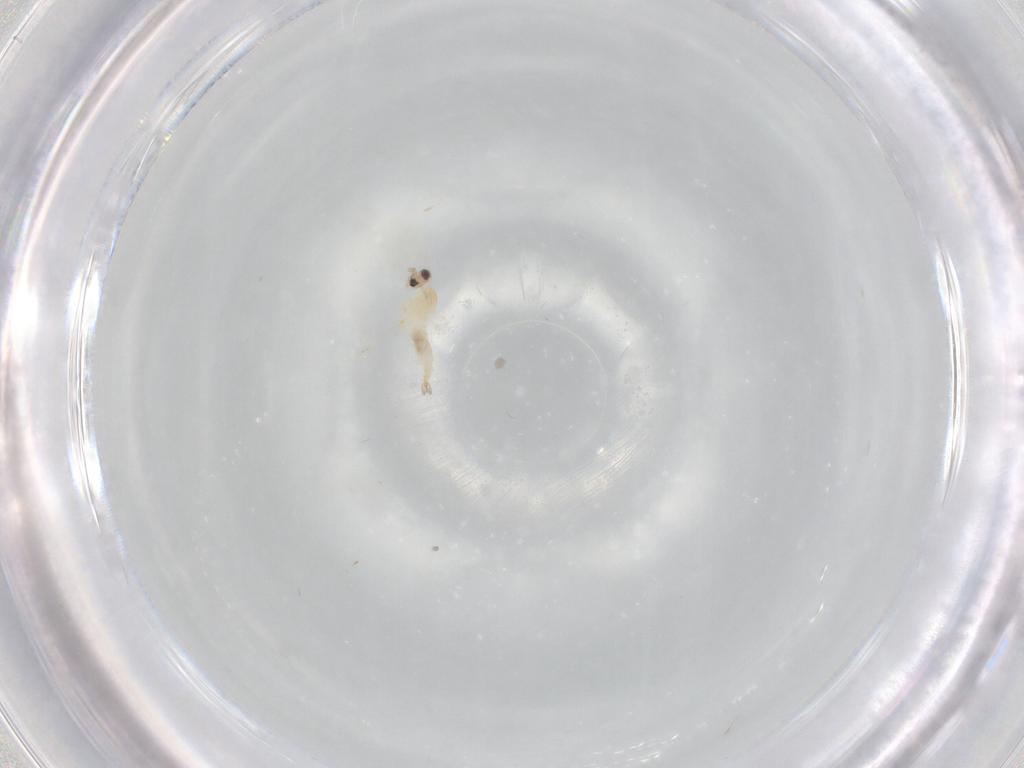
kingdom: Animalia
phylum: Arthropoda
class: Insecta
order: Diptera
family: Cecidomyiidae
